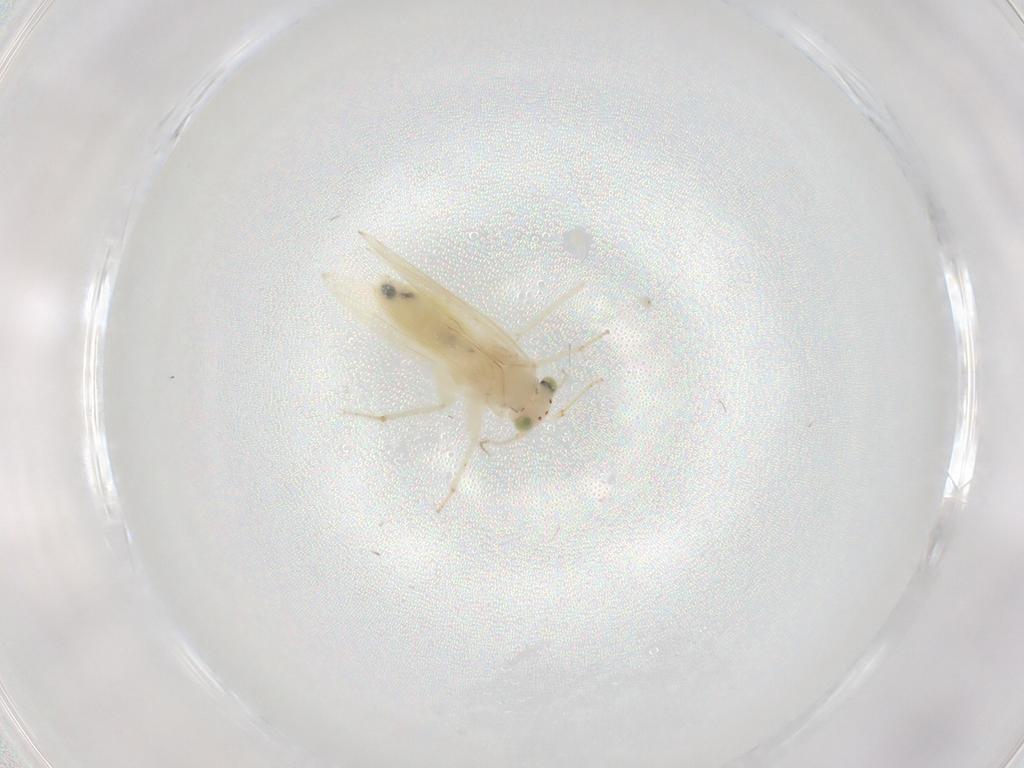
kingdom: Animalia
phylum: Arthropoda
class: Insecta
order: Psocodea
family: Lepidopsocidae
